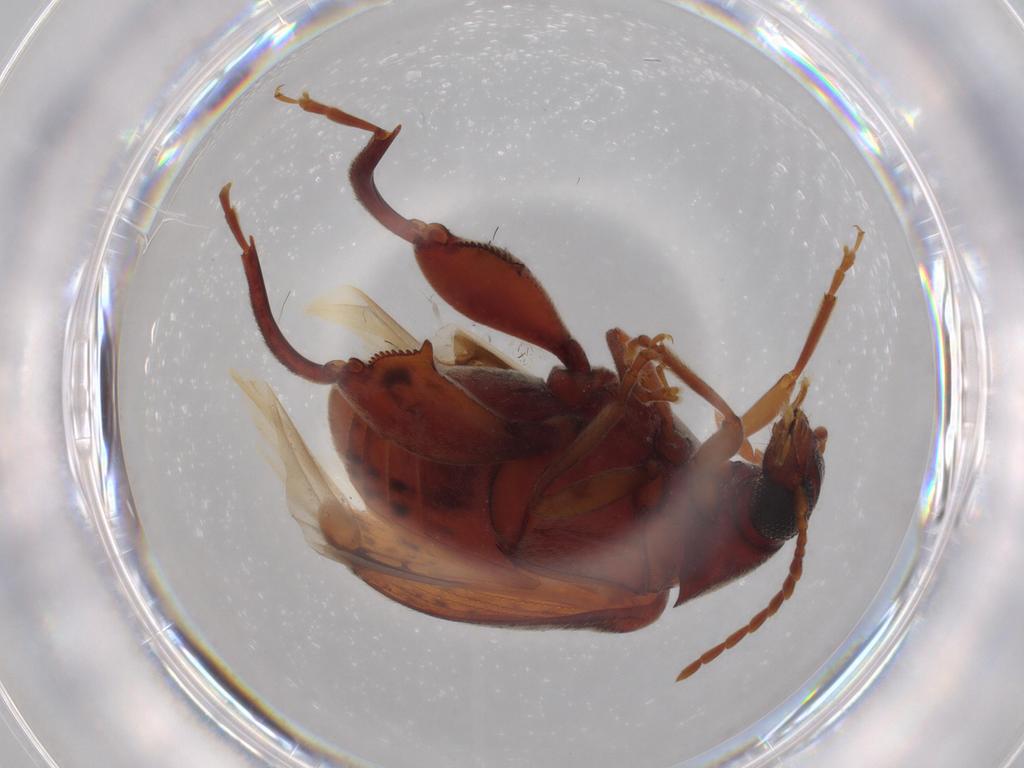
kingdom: Animalia
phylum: Arthropoda
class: Insecta
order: Coleoptera
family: Chrysomelidae
